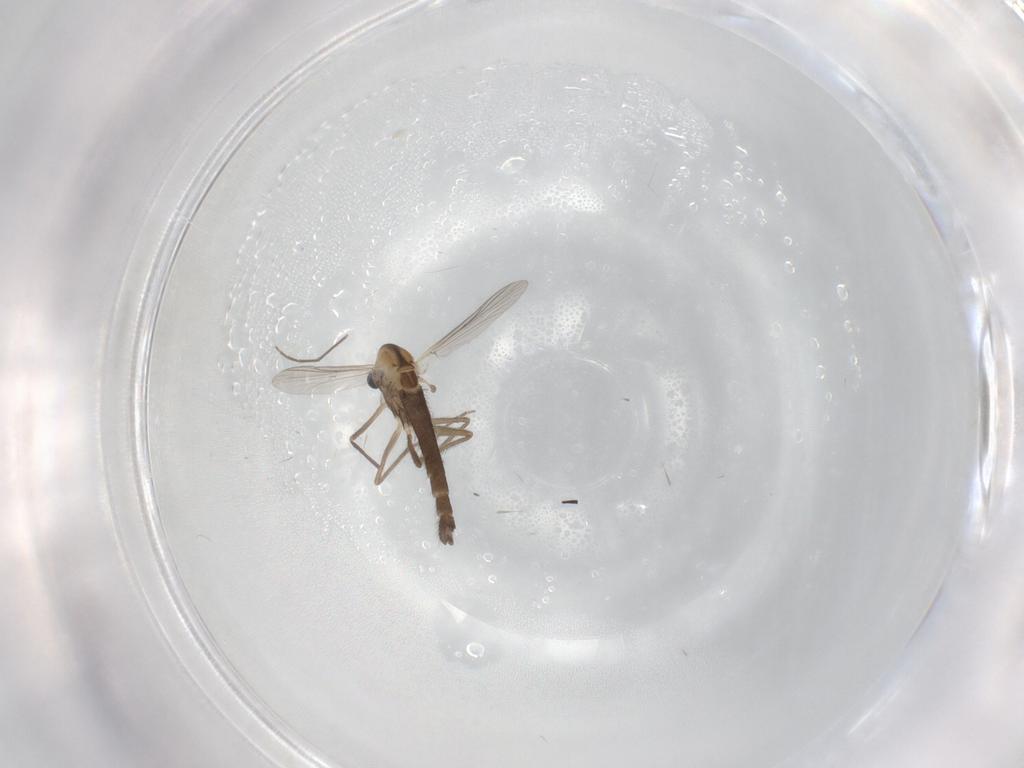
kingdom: Animalia
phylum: Arthropoda
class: Insecta
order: Diptera
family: Chironomidae
